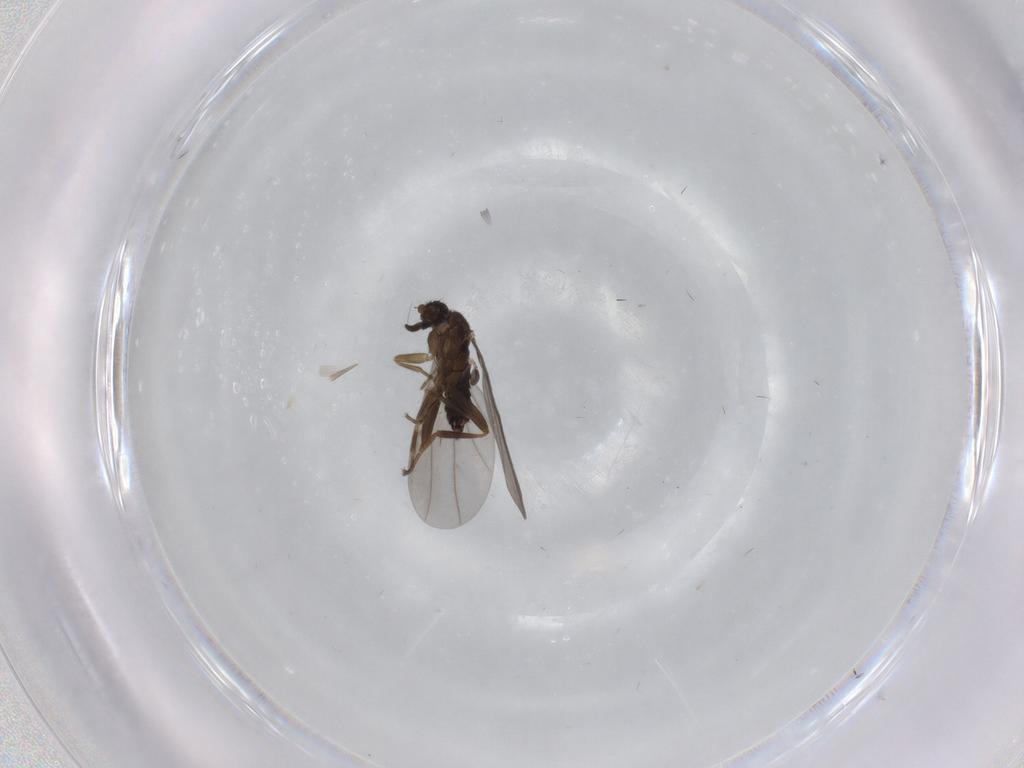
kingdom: Animalia
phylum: Arthropoda
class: Insecta
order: Diptera
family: Phoridae
